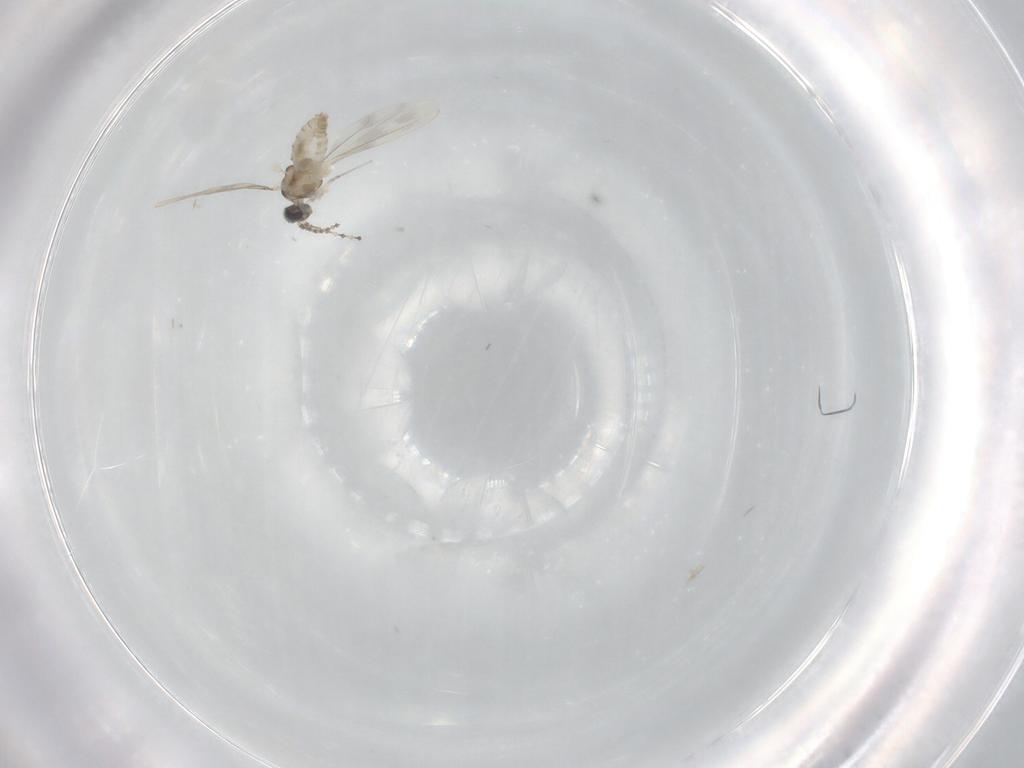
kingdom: Animalia
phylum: Arthropoda
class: Insecta
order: Diptera
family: Cecidomyiidae
